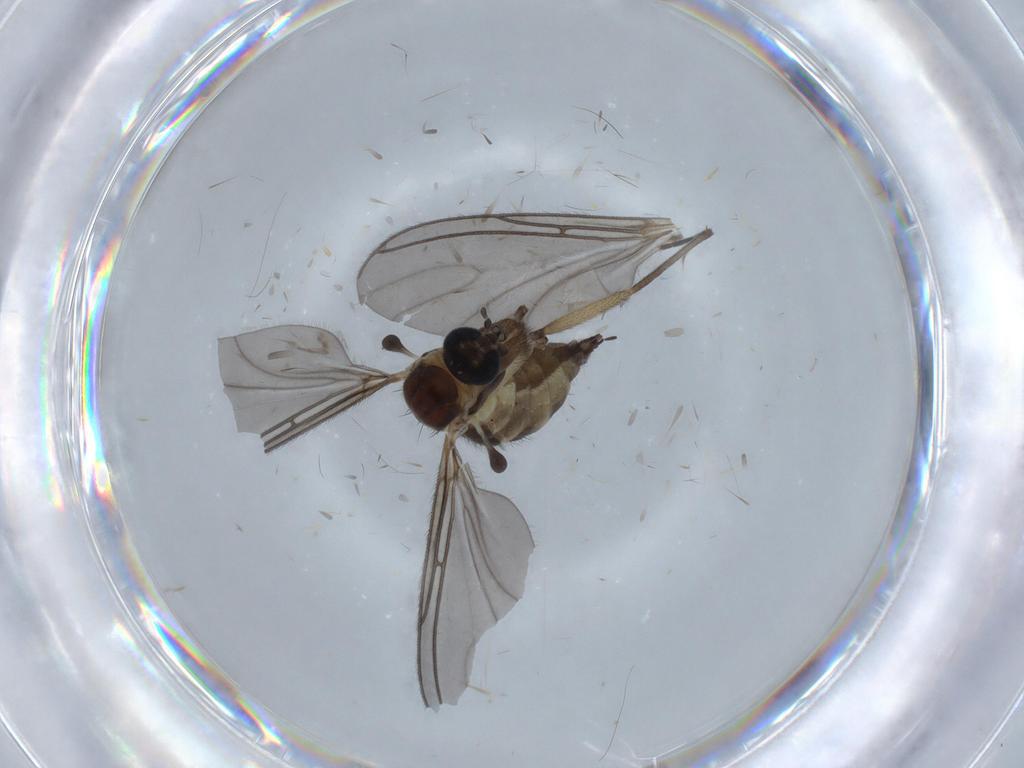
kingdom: Animalia
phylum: Arthropoda
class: Insecta
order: Diptera
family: Sciaridae
